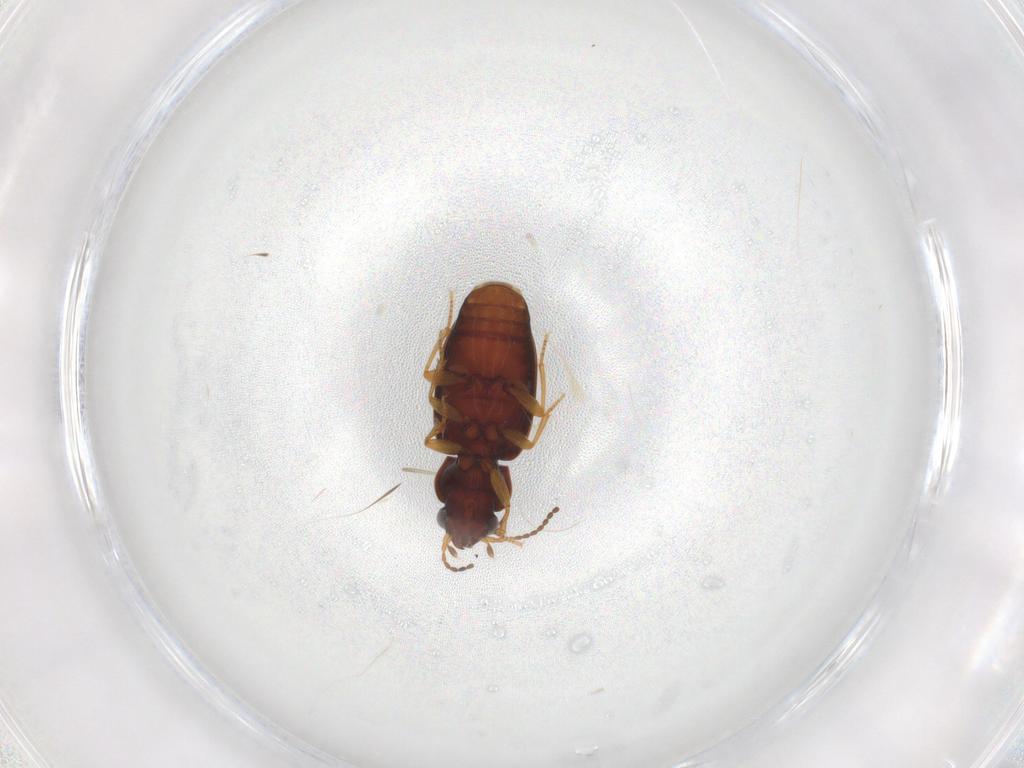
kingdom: Animalia
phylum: Arthropoda
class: Insecta
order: Coleoptera
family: Carabidae
